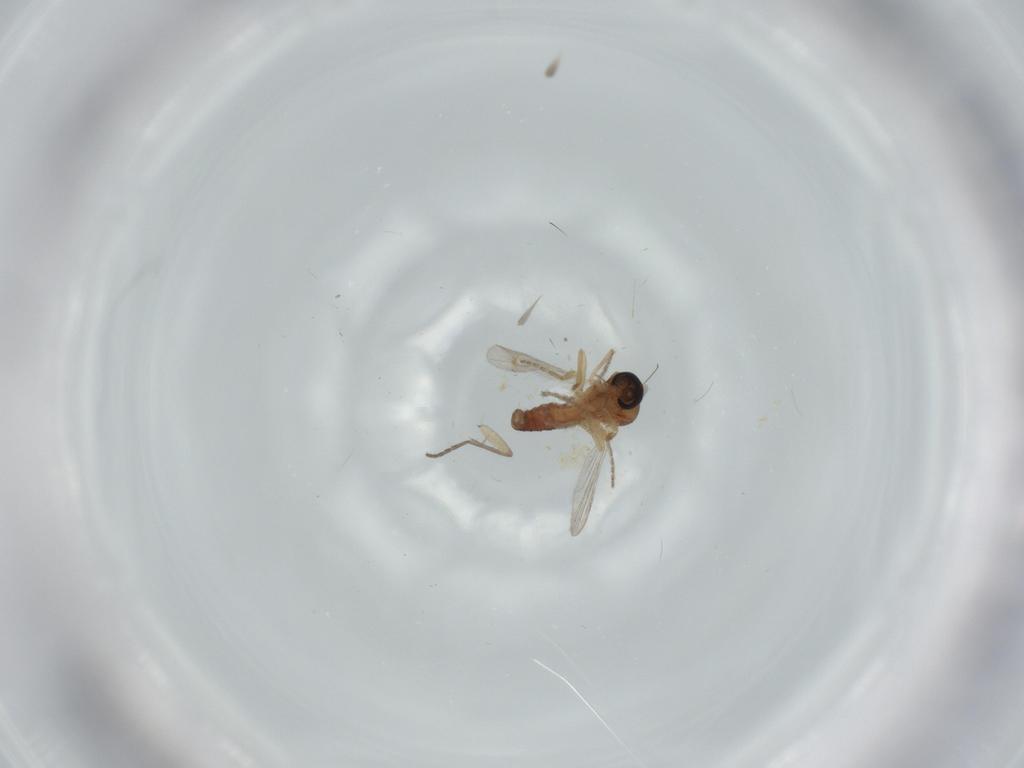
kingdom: Animalia
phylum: Arthropoda
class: Insecta
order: Diptera
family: Ceratopogonidae
